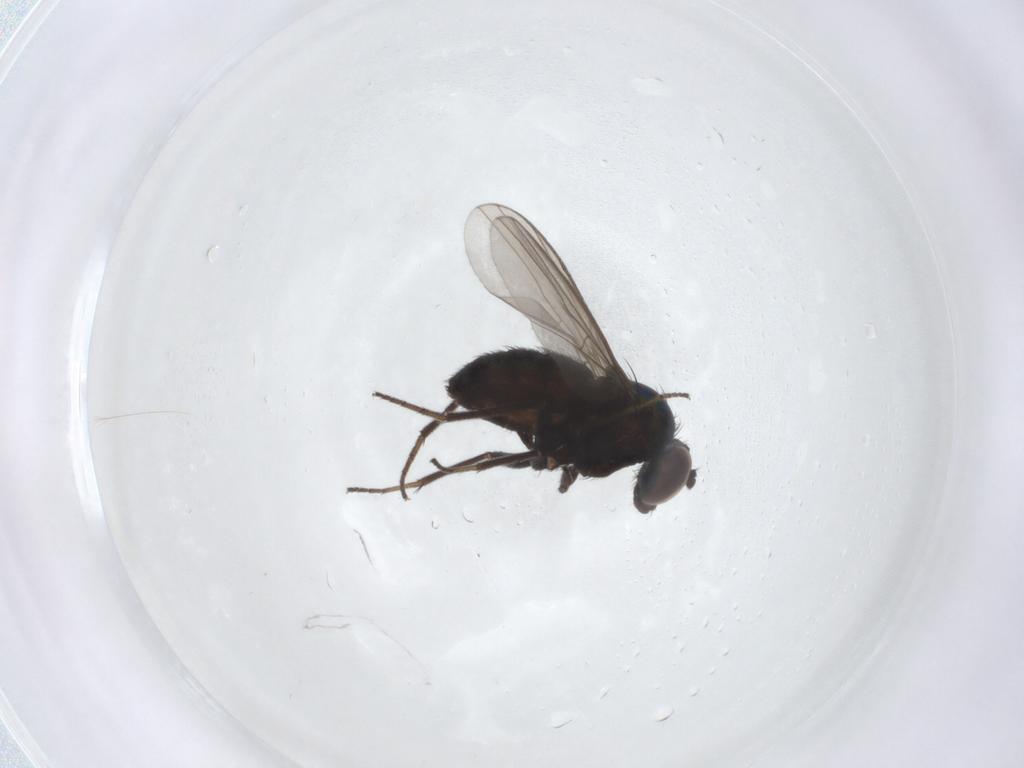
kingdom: Animalia
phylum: Arthropoda
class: Insecta
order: Diptera
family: Dolichopodidae
